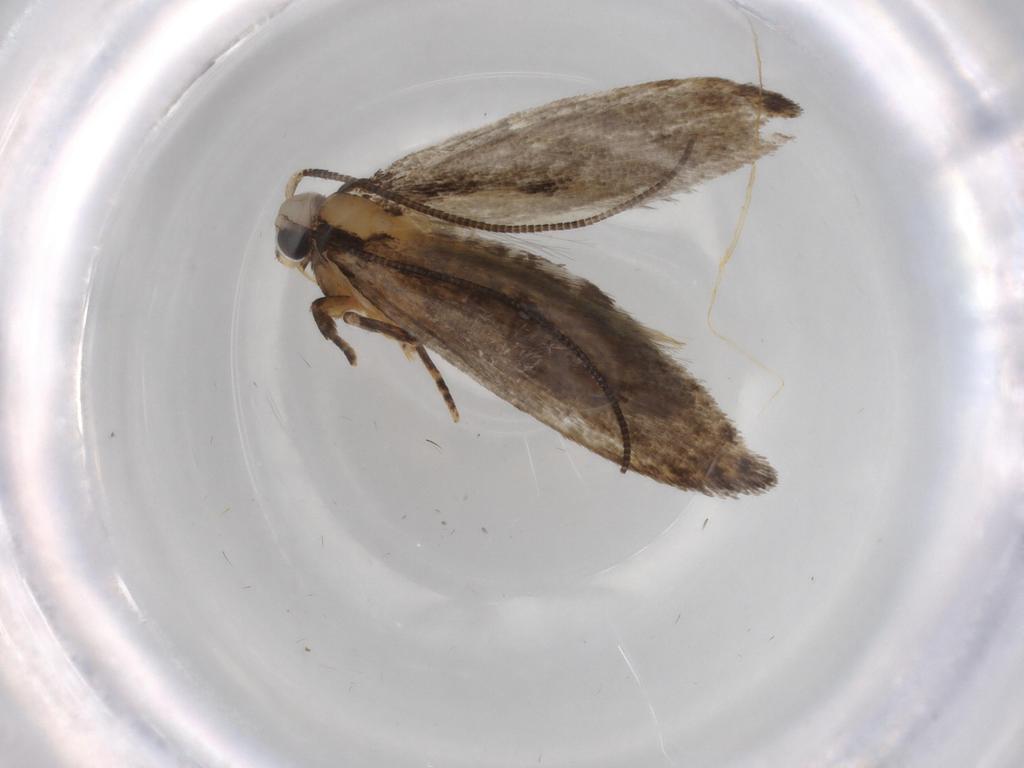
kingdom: Animalia
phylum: Arthropoda
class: Insecta
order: Lepidoptera
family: Tineidae
